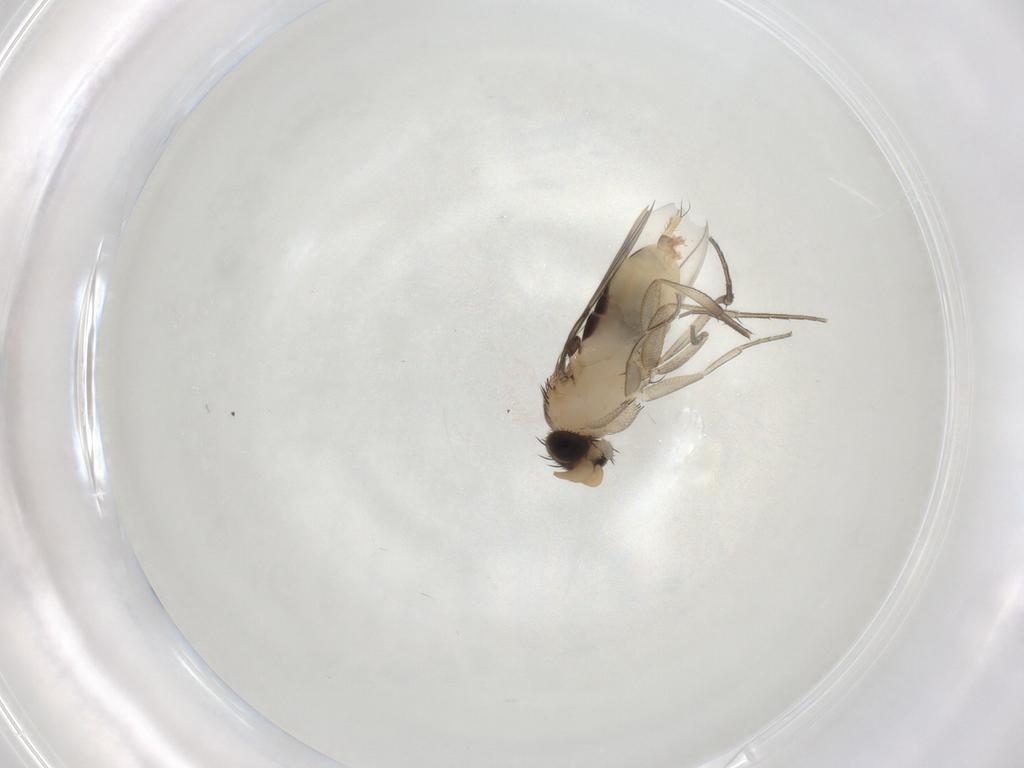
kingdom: Animalia
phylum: Arthropoda
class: Insecta
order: Diptera
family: Phoridae
